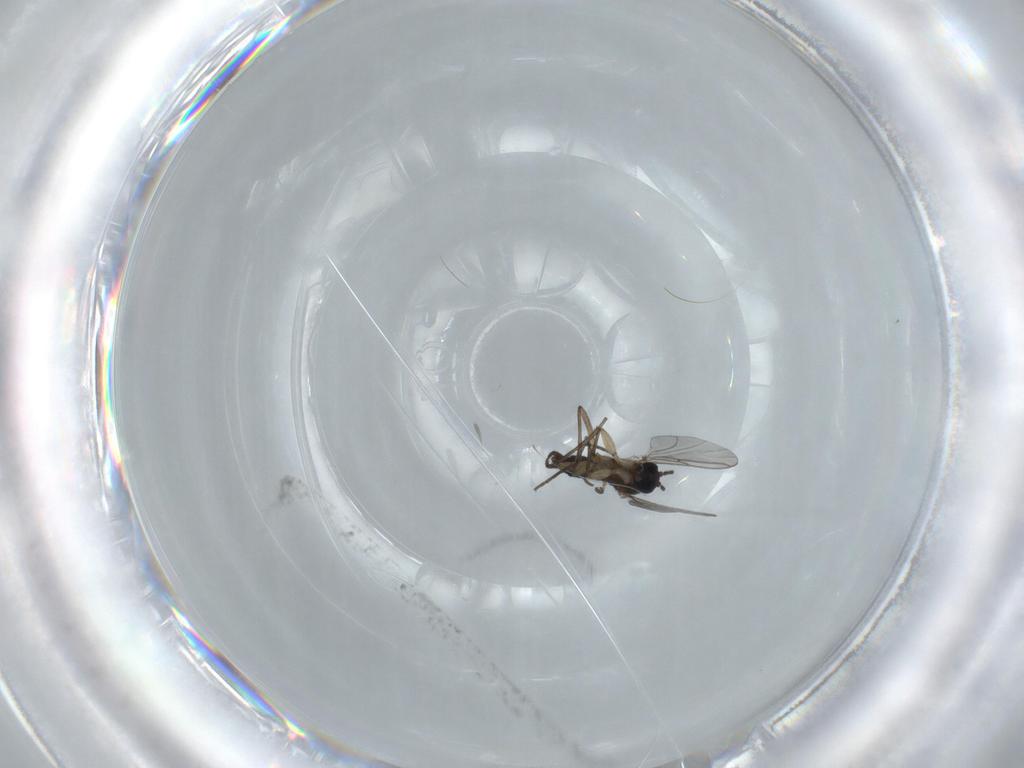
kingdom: Animalia
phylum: Arthropoda
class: Insecta
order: Diptera
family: Sciaridae
